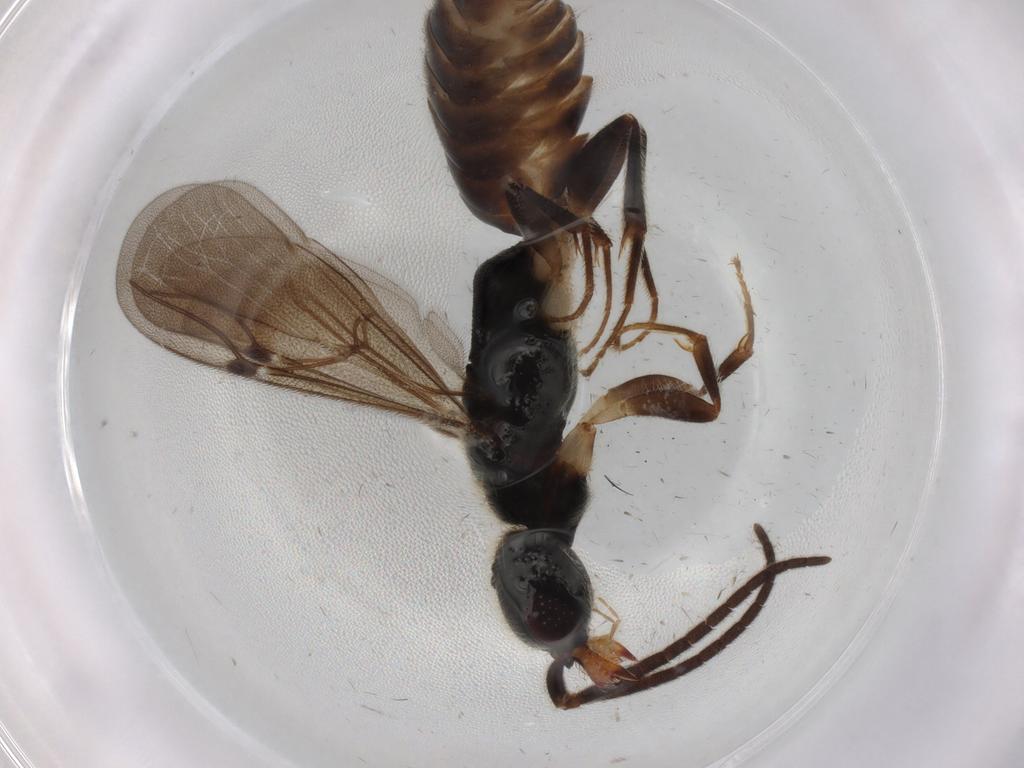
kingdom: Animalia
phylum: Arthropoda
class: Insecta
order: Hymenoptera
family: Bethylidae
